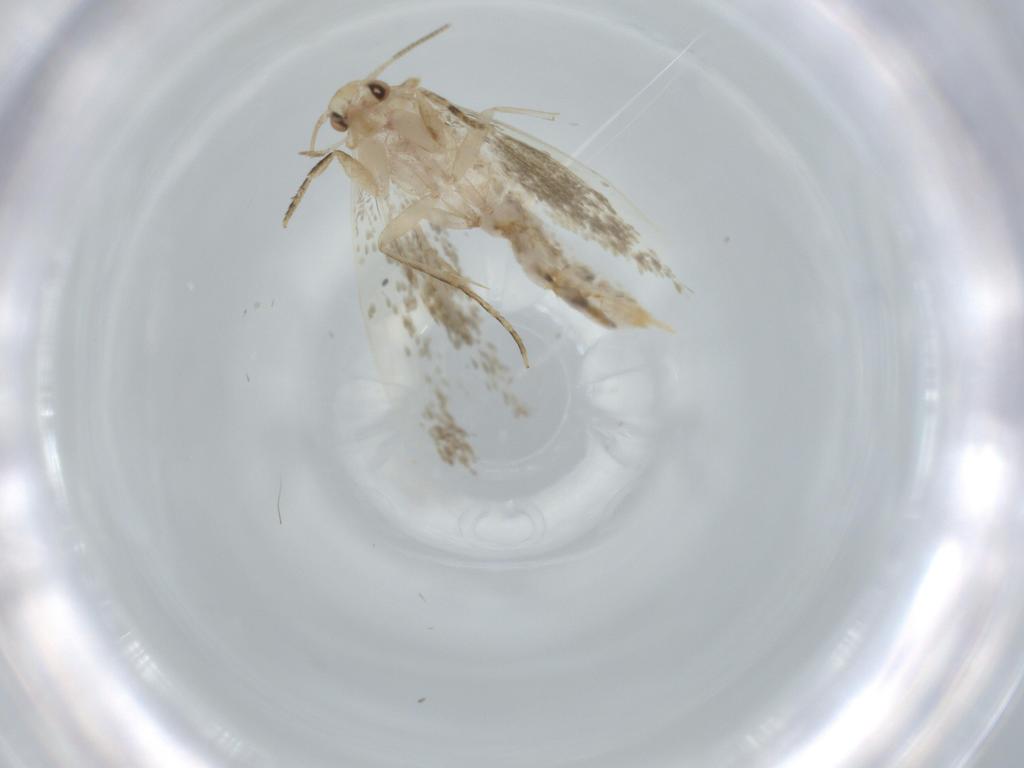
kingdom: Animalia
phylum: Arthropoda
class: Insecta
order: Lepidoptera
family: Tineidae
